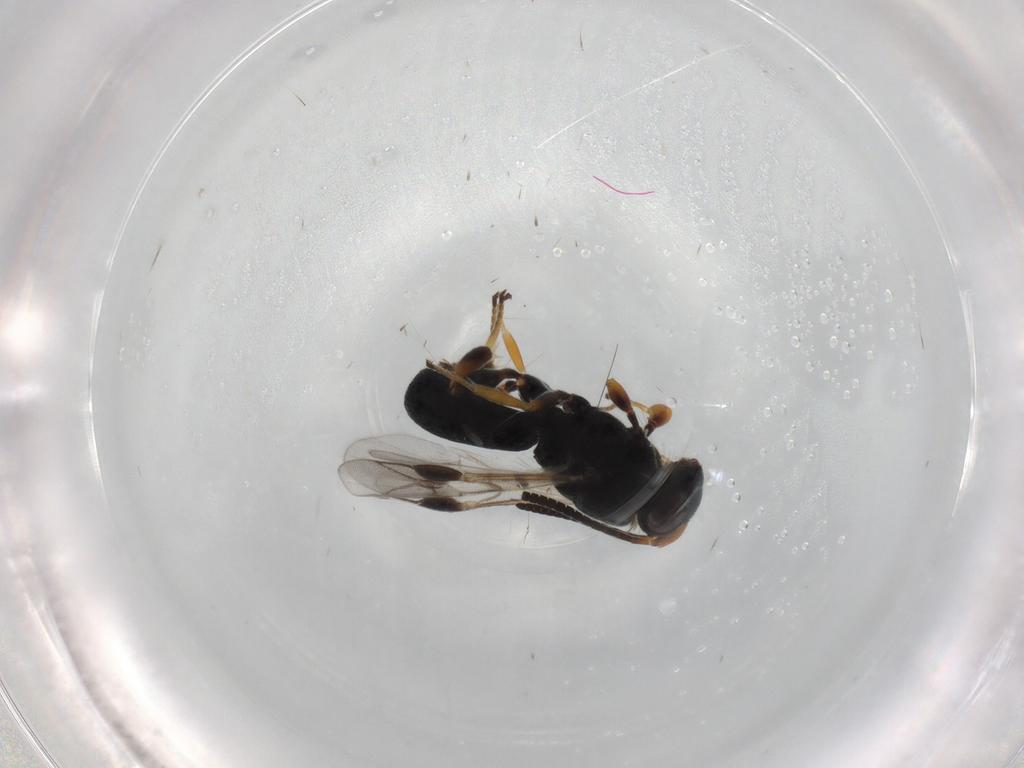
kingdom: Animalia
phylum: Arthropoda
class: Insecta
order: Hymenoptera
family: Braconidae
